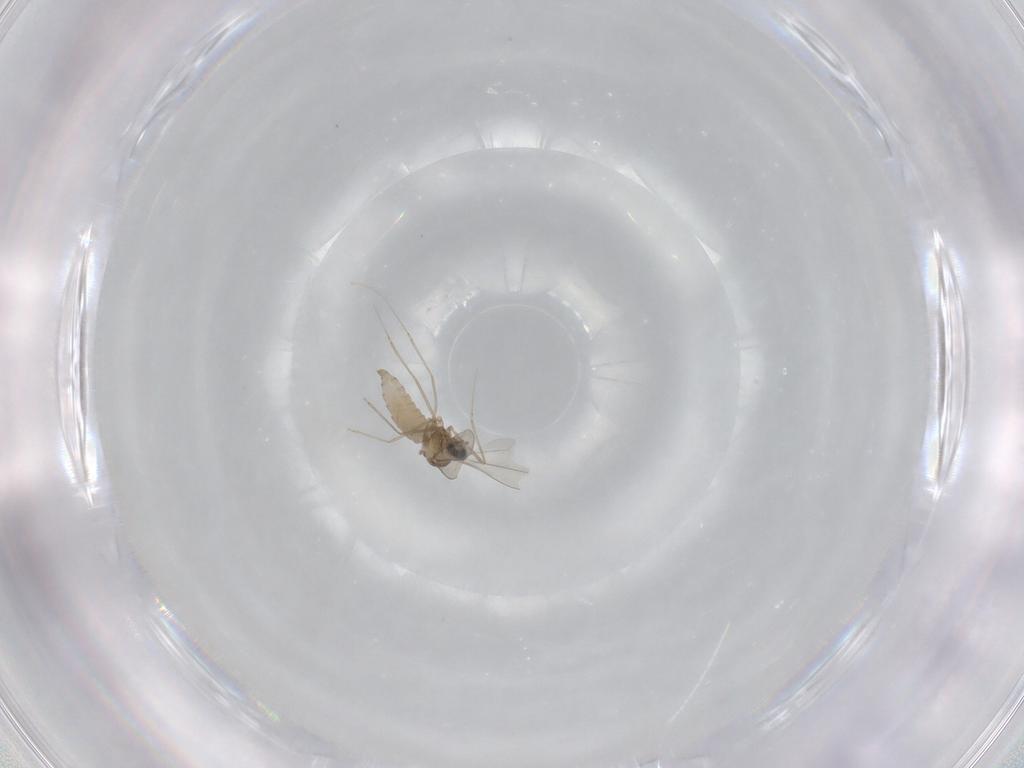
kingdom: Animalia
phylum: Arthropoda
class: Insecta
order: Diptera
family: Cecidomyiidae
